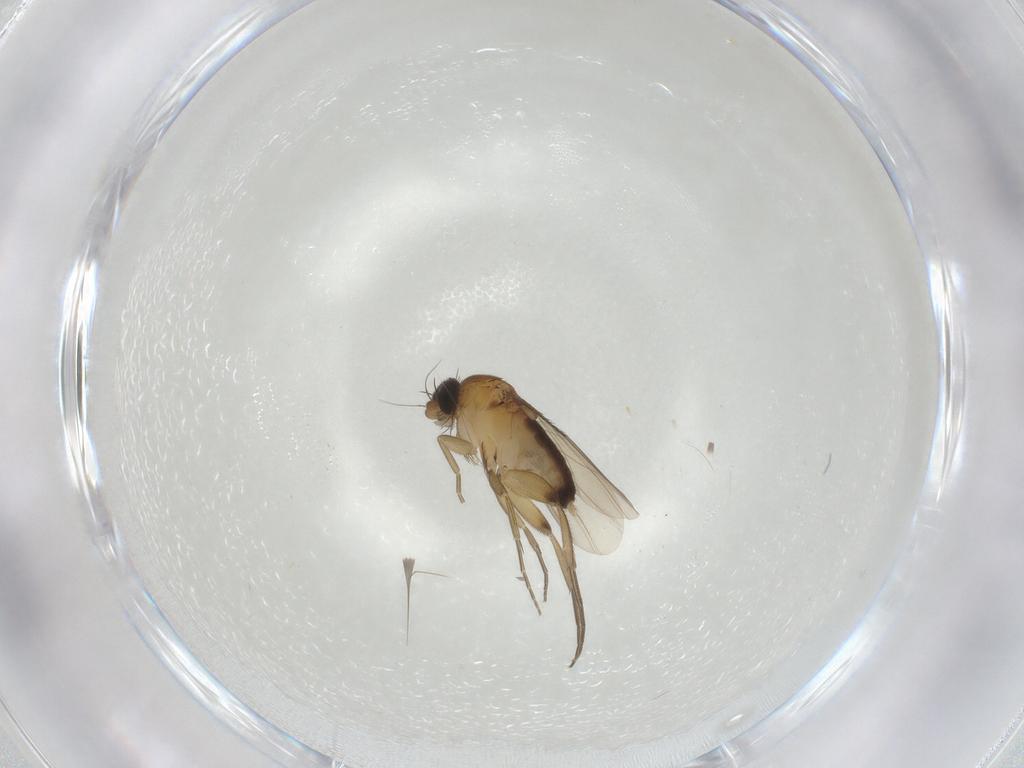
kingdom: Animalia
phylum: Arthropoda
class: Insecta
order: Diptera
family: Phoridae
